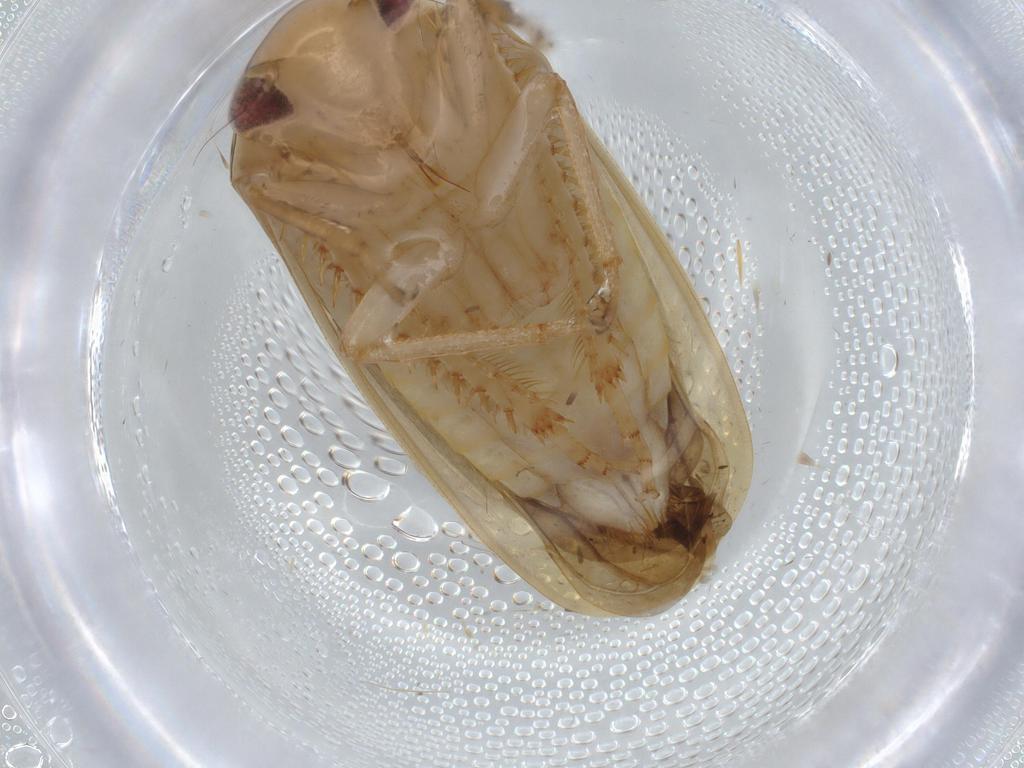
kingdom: Animalia
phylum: Arthropoda
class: Insecta
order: Hemiptera
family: Cicadellidae
